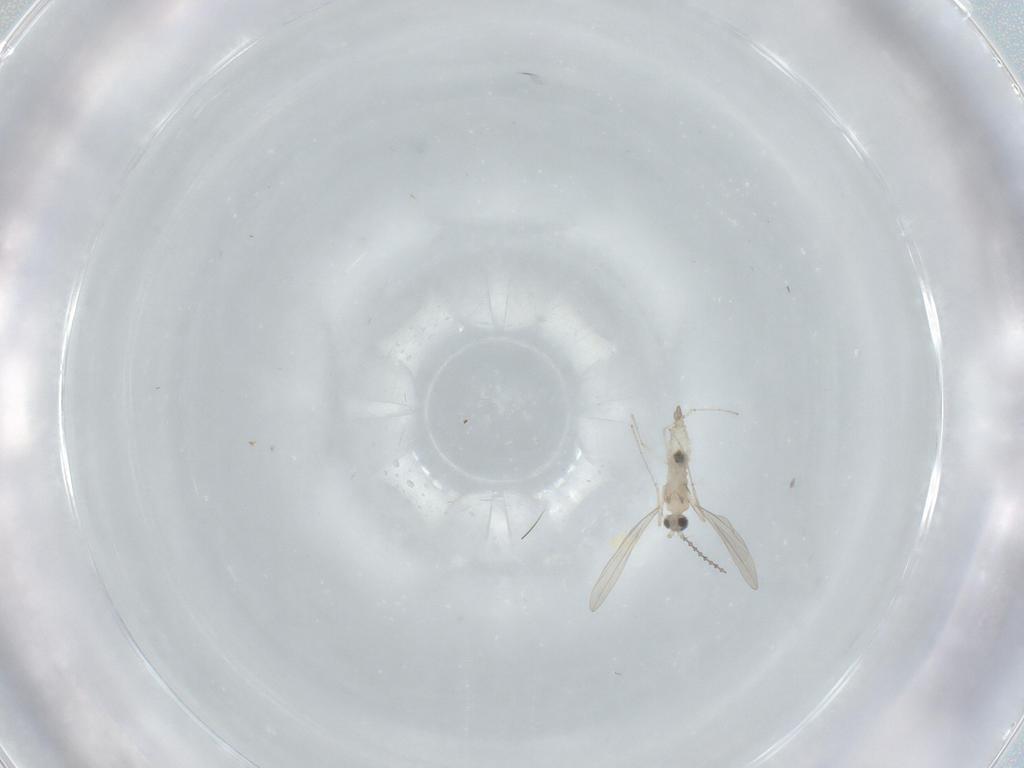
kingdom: Animalia
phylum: Arthropoda
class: Insecta
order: Diptera
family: Cecidomyiidae
